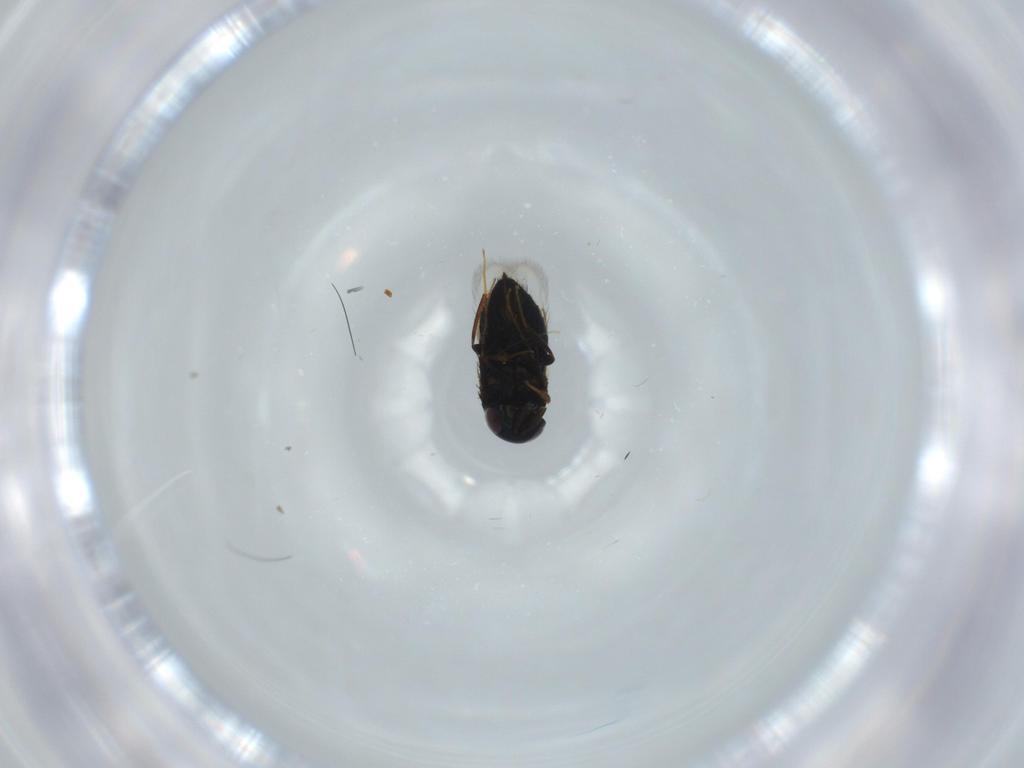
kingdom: Animalia
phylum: Arthropoda
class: Insecta
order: Hymenoptera
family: Signiphoridae
